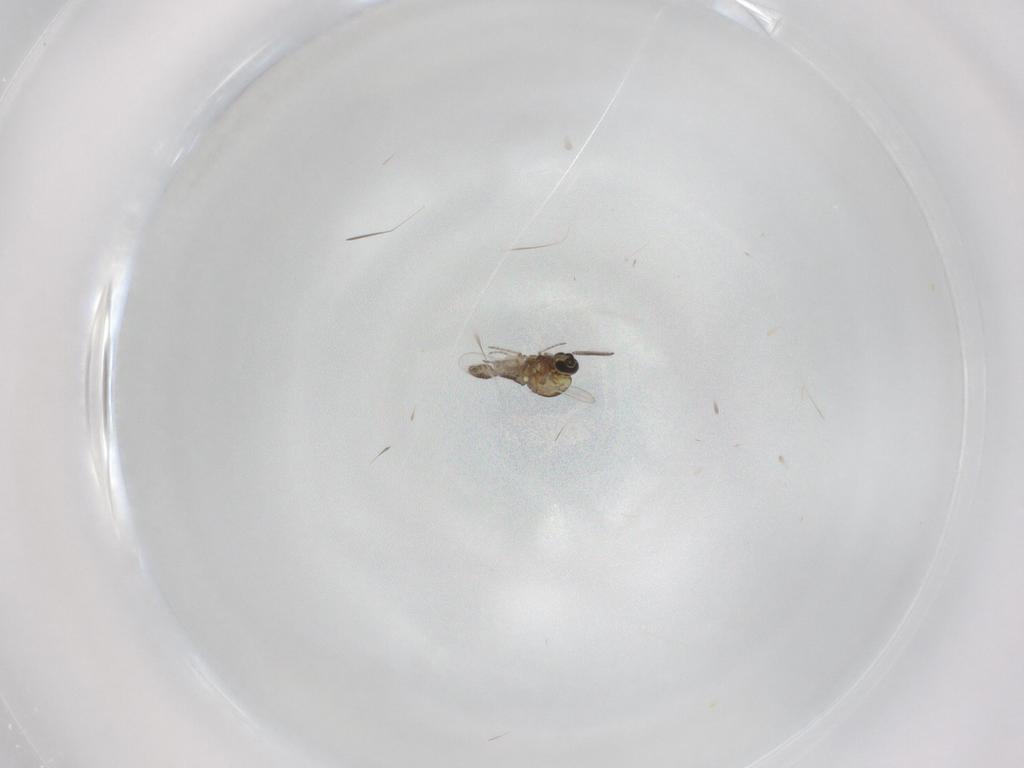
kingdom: Animalia
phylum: Arthropoda
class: Insecta
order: Diptera
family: Ceratopogonidae
